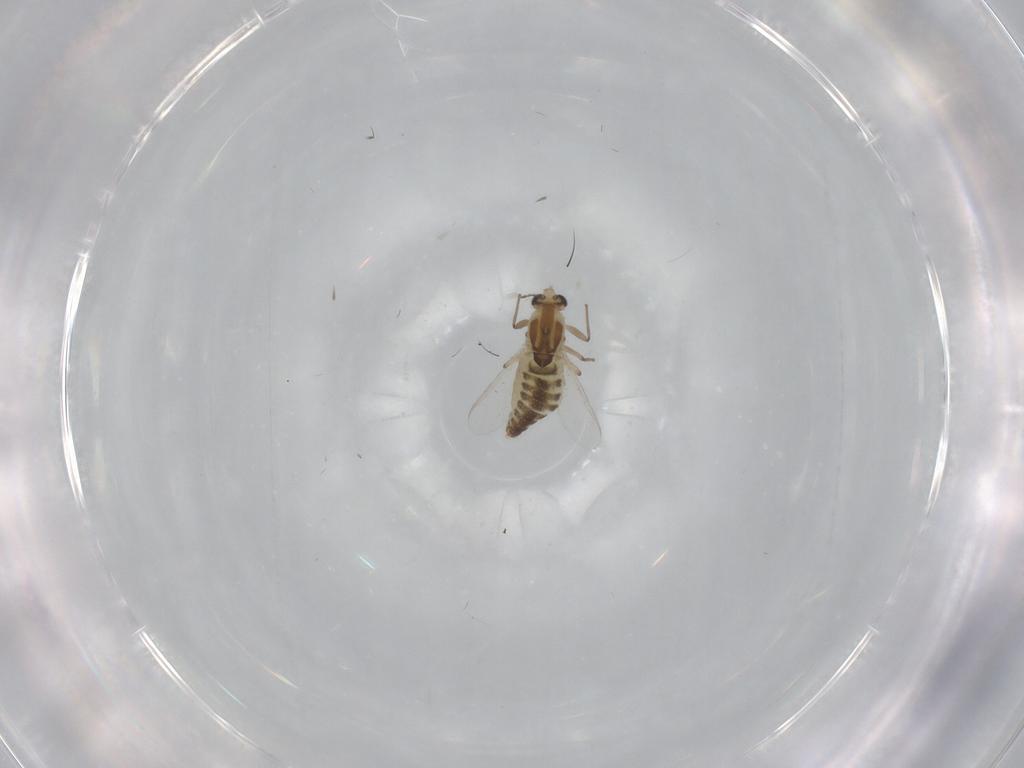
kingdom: Animalia
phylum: Arthropoda
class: Insecta
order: Diptera
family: Chironomidae
